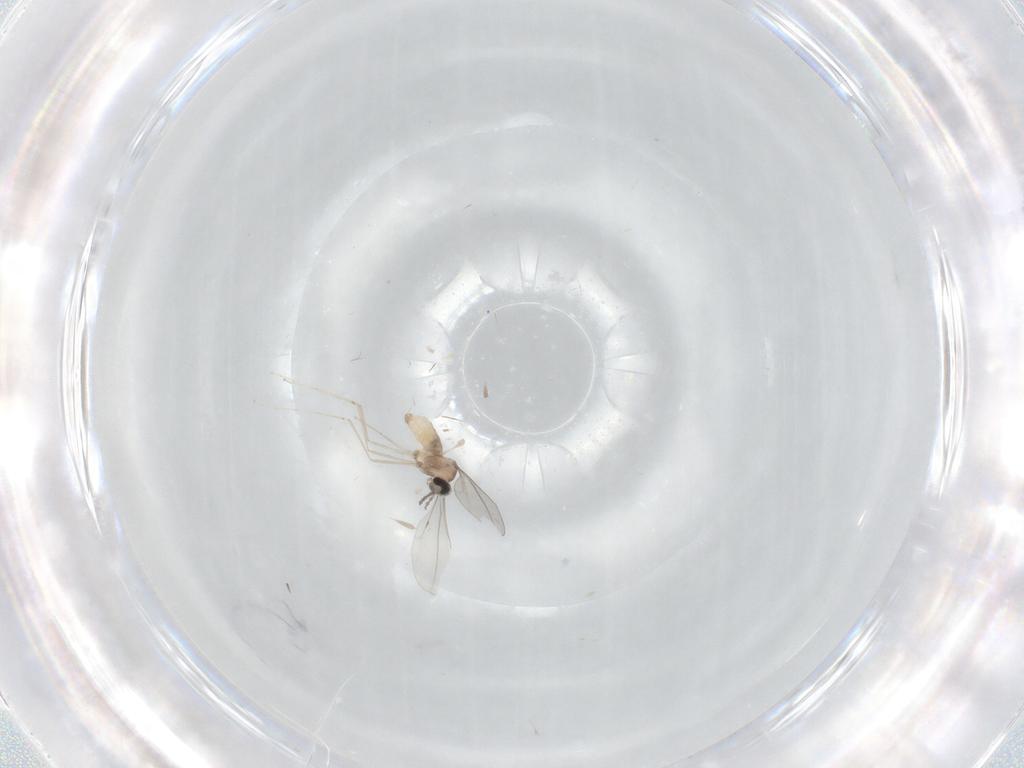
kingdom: Animalia
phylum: Arthropoda
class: Insecta
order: Diptera
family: Cecidomyiidae
